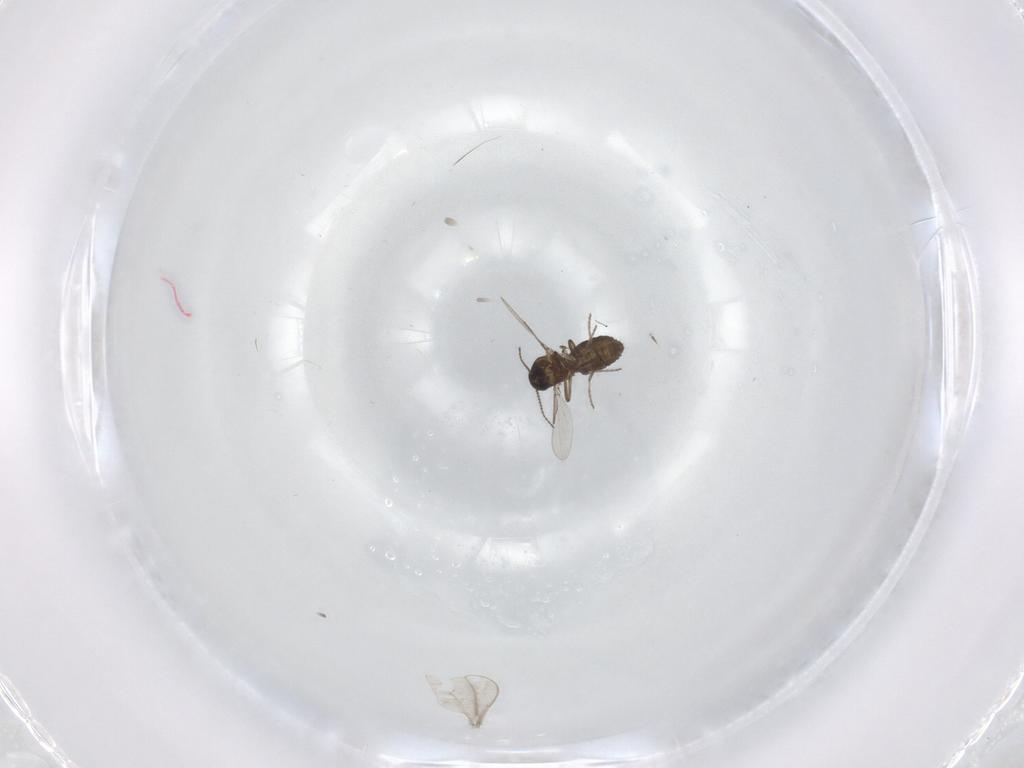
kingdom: Animalia
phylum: Arthropoda
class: Insecta
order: Diptera
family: Ceratopogonidae
